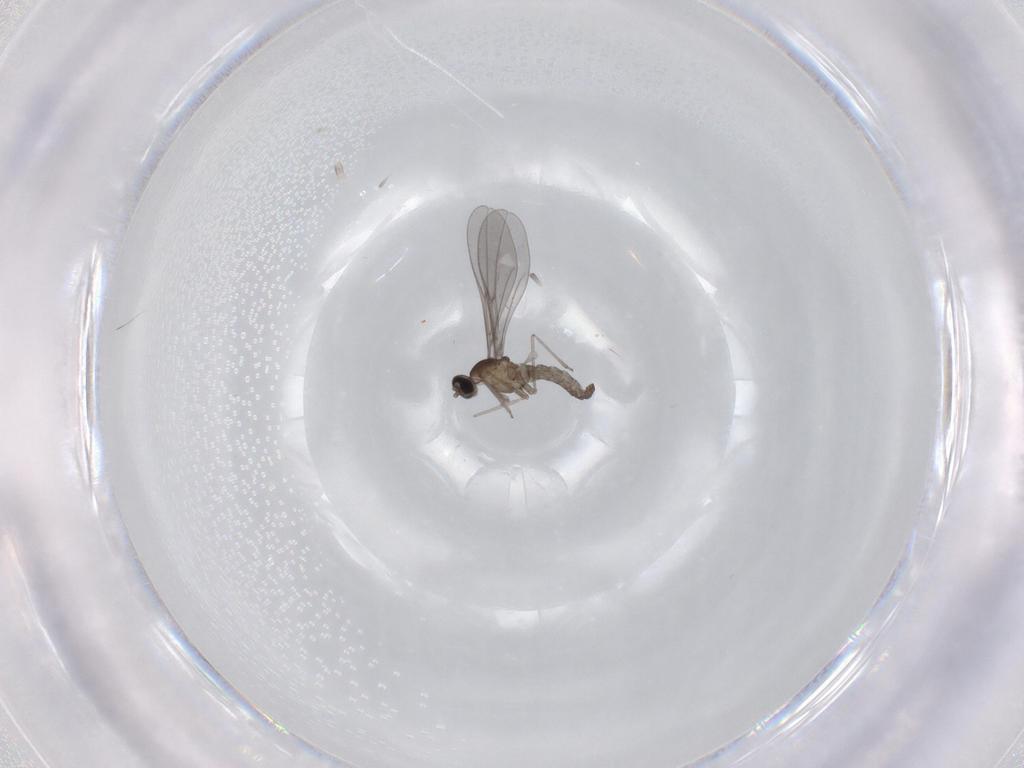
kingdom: Animalia
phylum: Arthropoda
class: Insecta
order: Diptera
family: Cecidomyiidae
